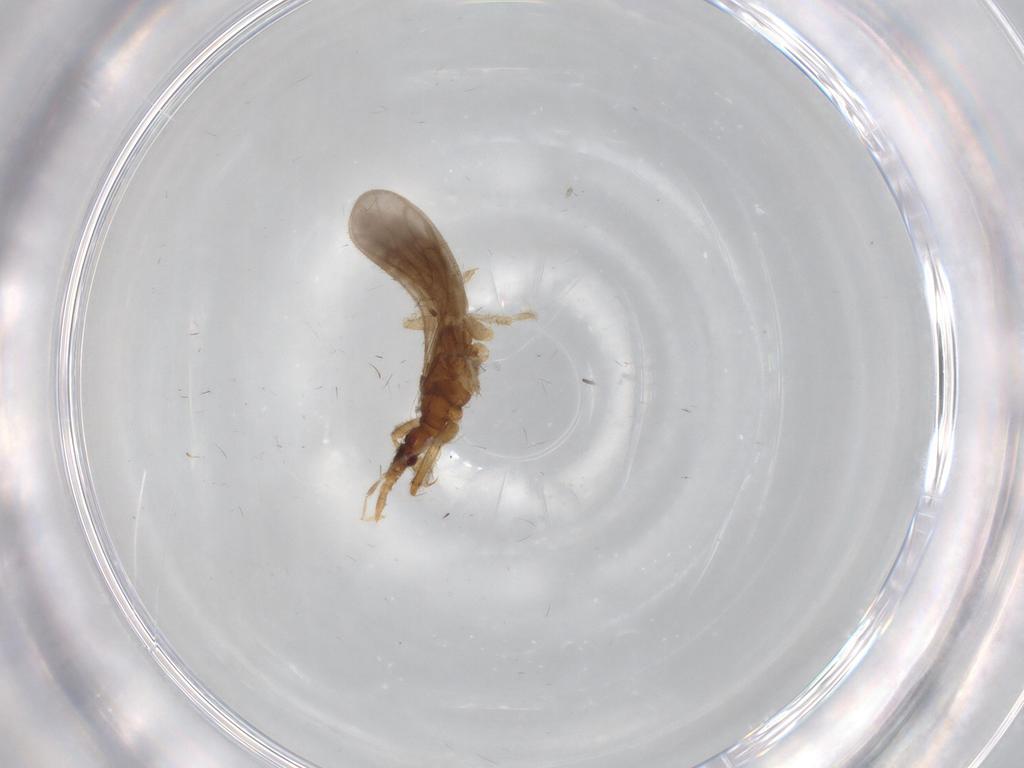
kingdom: Animalia
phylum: Arthropoda
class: Insecta
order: Hemiptera
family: Enicocephalidae
